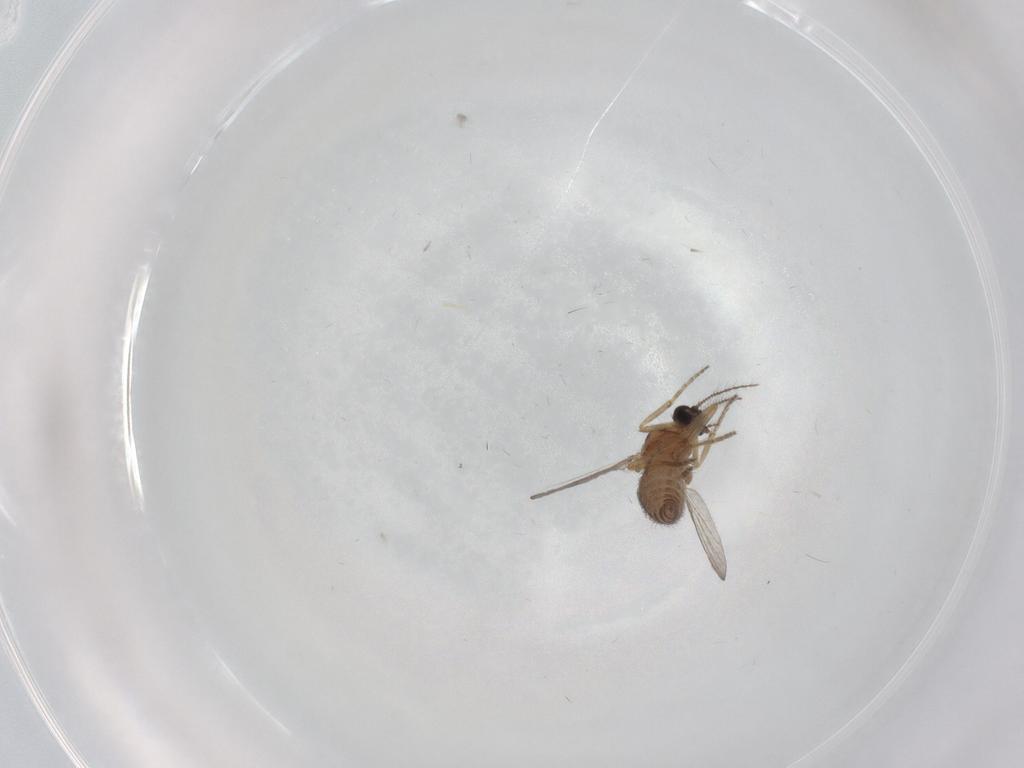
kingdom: Animalia
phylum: Arthropoda
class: Insecta
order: Diptera
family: Ceratopogonidae
